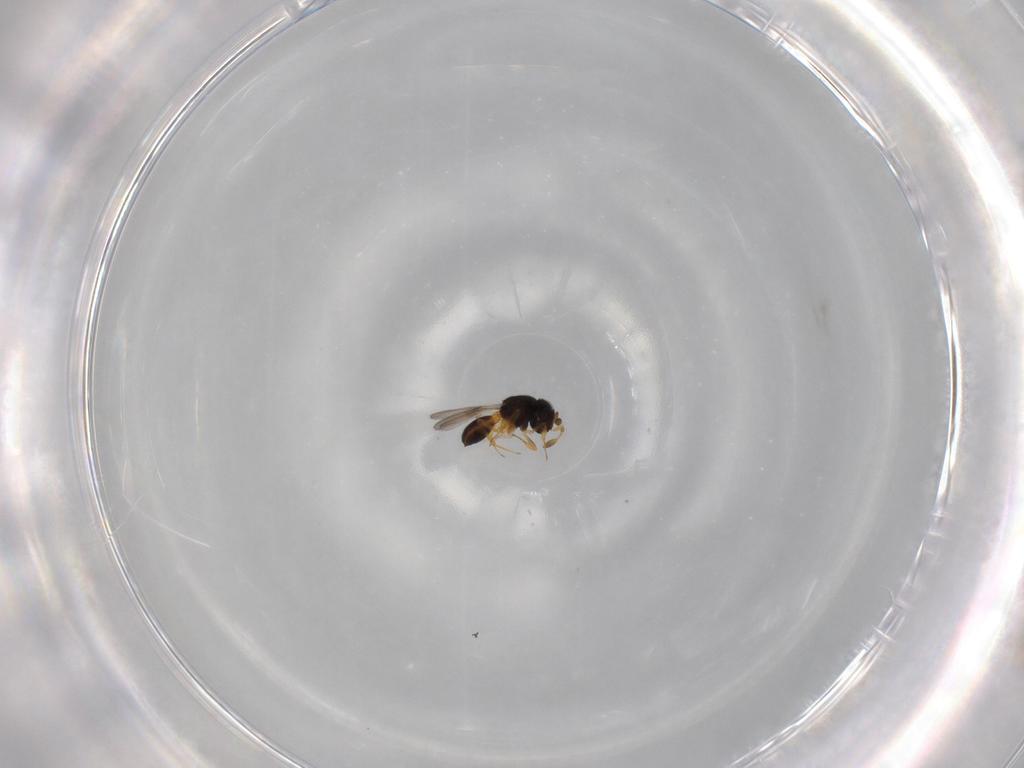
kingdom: Animalia
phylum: Arthropoda
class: Insecta
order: Hymenoptera
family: Scelionidae
